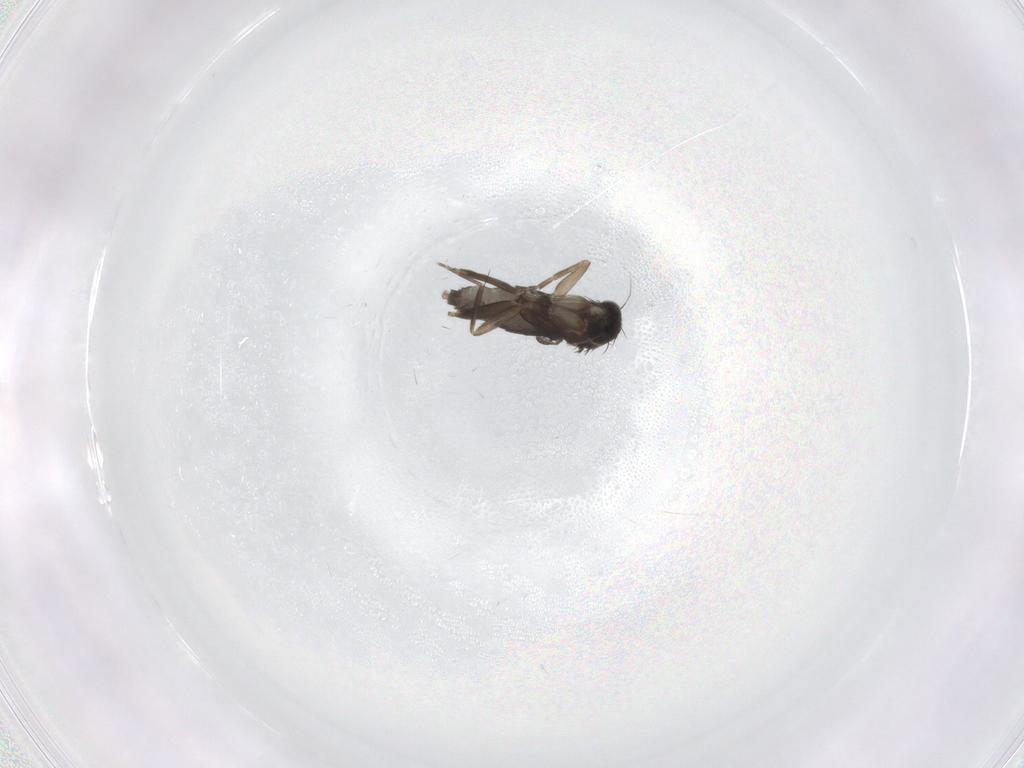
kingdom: Animalia
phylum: Arthropoda
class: Insecta
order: Diptera
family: Phoridae
